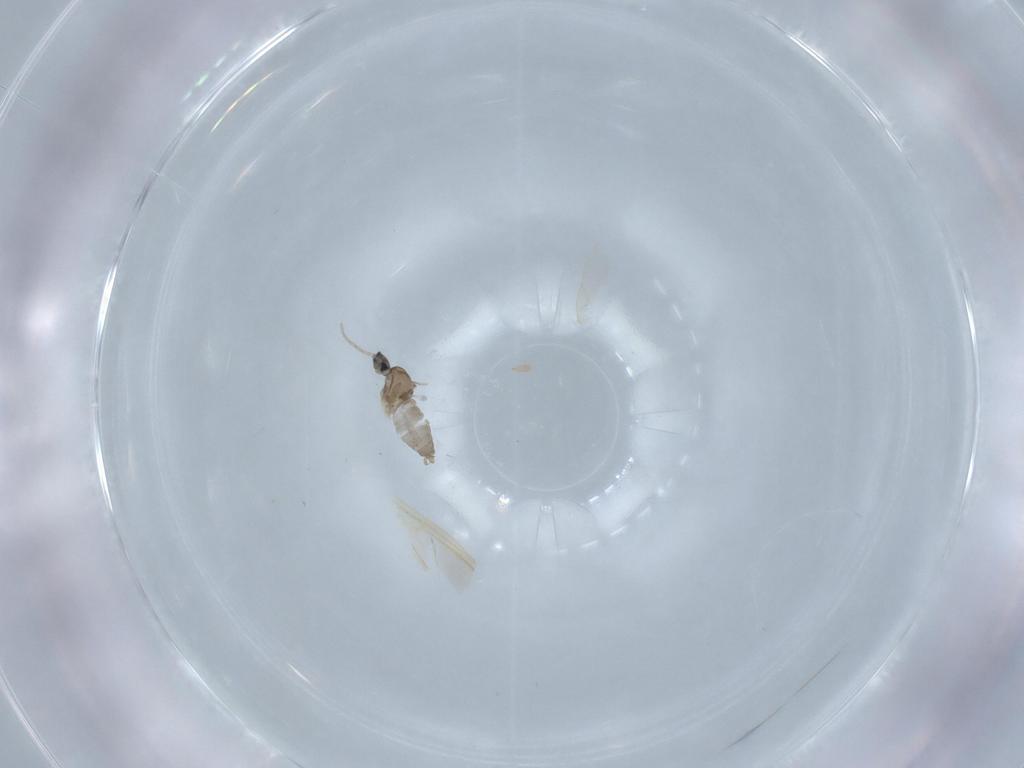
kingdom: Animalia
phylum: Arthropoda
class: Insecta
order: Diptera
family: Cecidomyiidae
